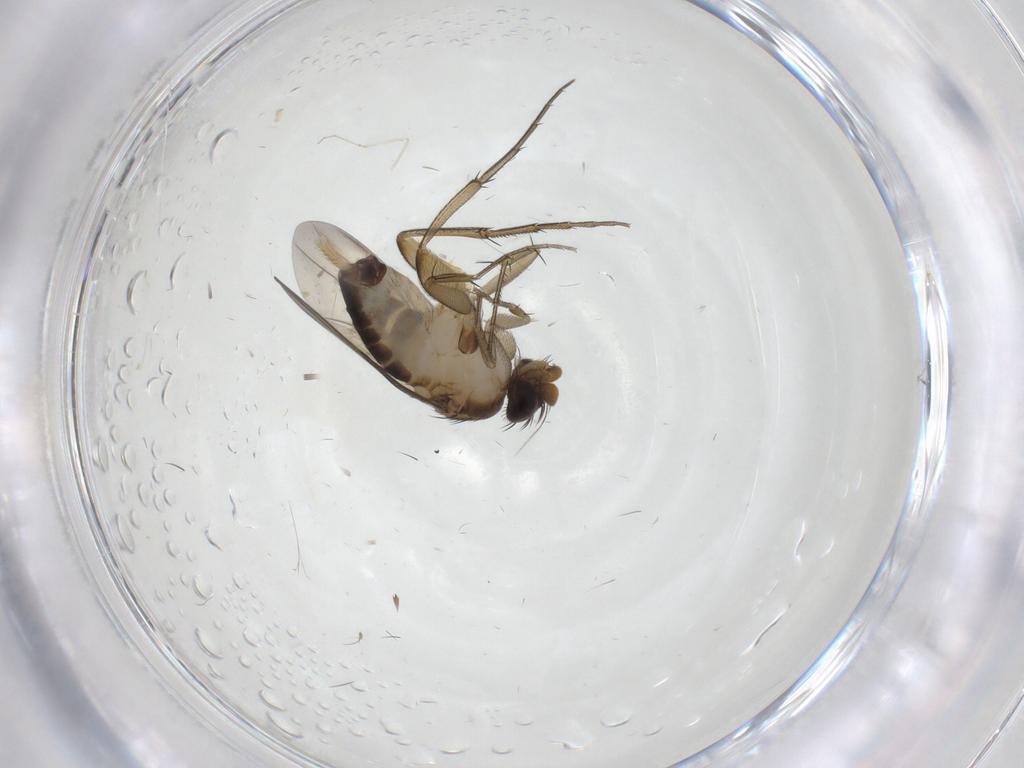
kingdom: Animalia
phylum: Arthropoda
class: Insecta
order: Diptera
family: Phoridae
